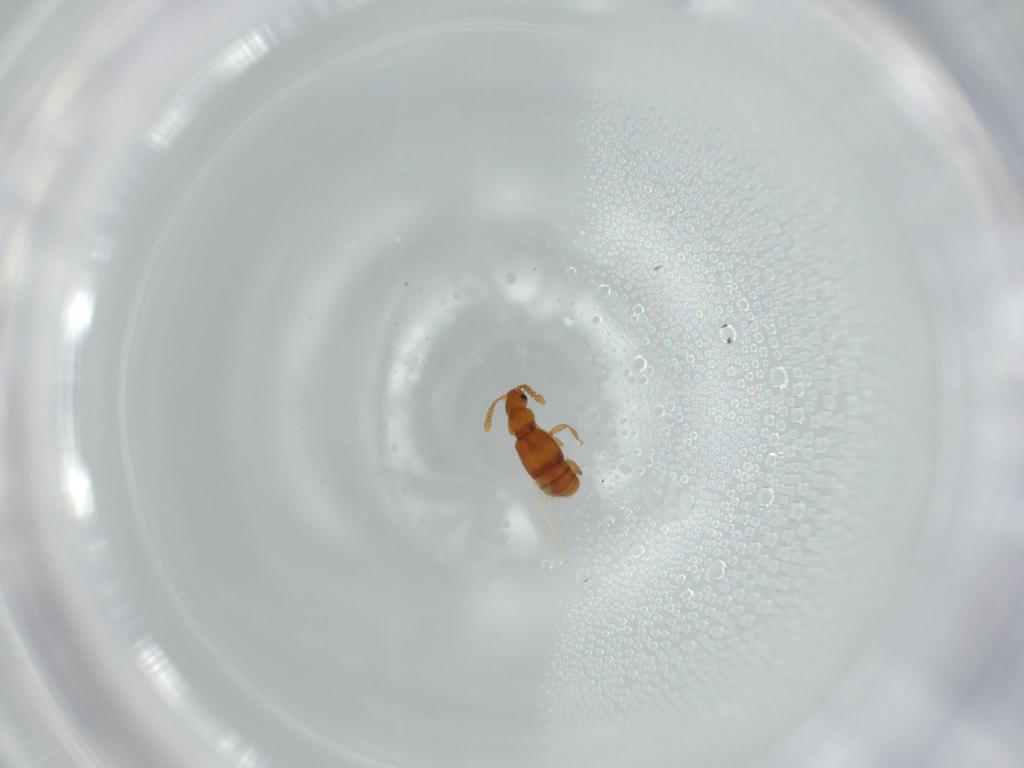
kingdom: Animalia
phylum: Arthropoda
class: Insecta
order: Coleoptera
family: Staphylinidae
